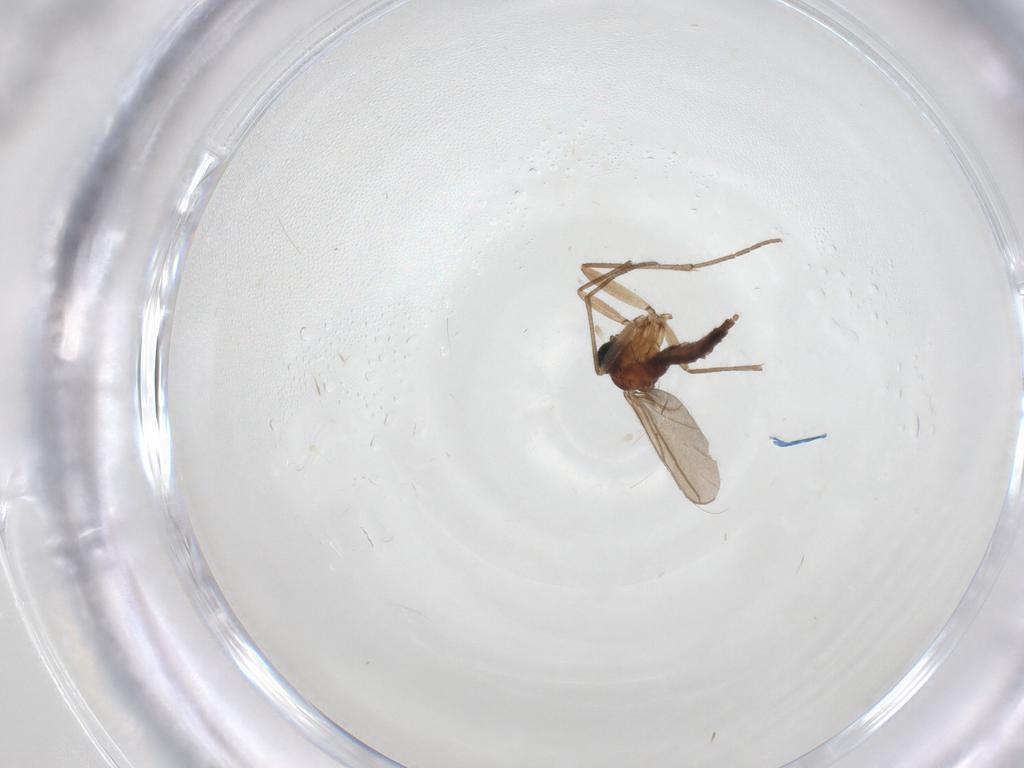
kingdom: Animalia
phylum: Arthropoda
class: Insecta
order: Diptera
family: Sciaridae
